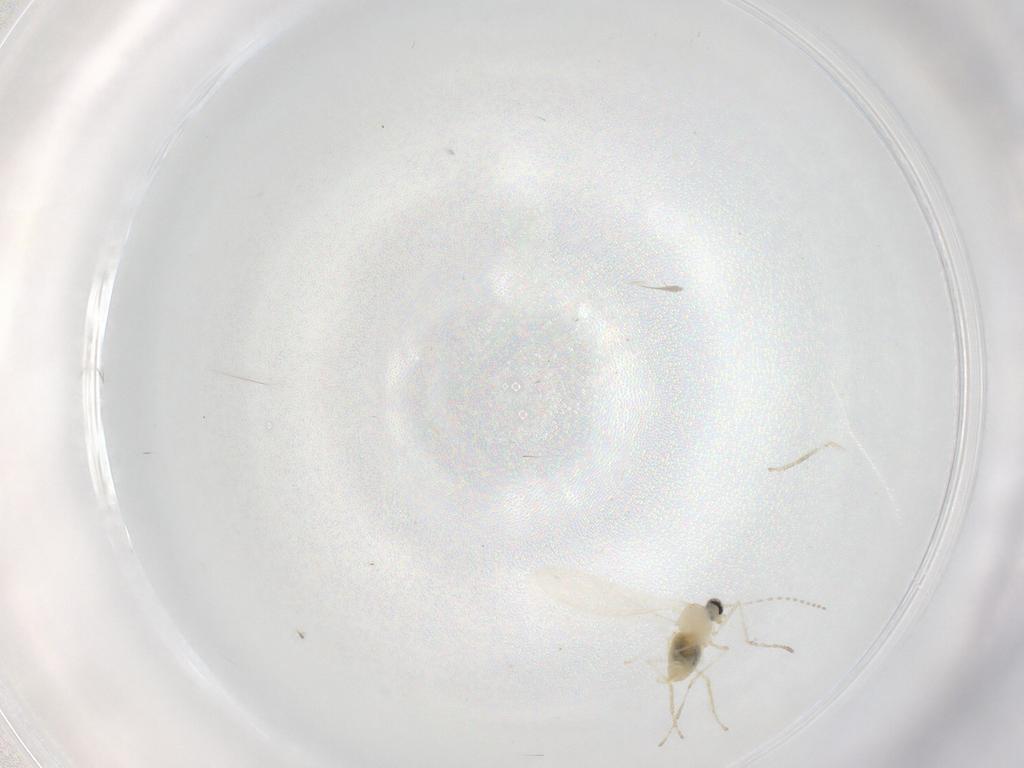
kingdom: Animalia
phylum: Arthropoda
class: Insecta
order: Diptera
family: Cecidomyiidae
